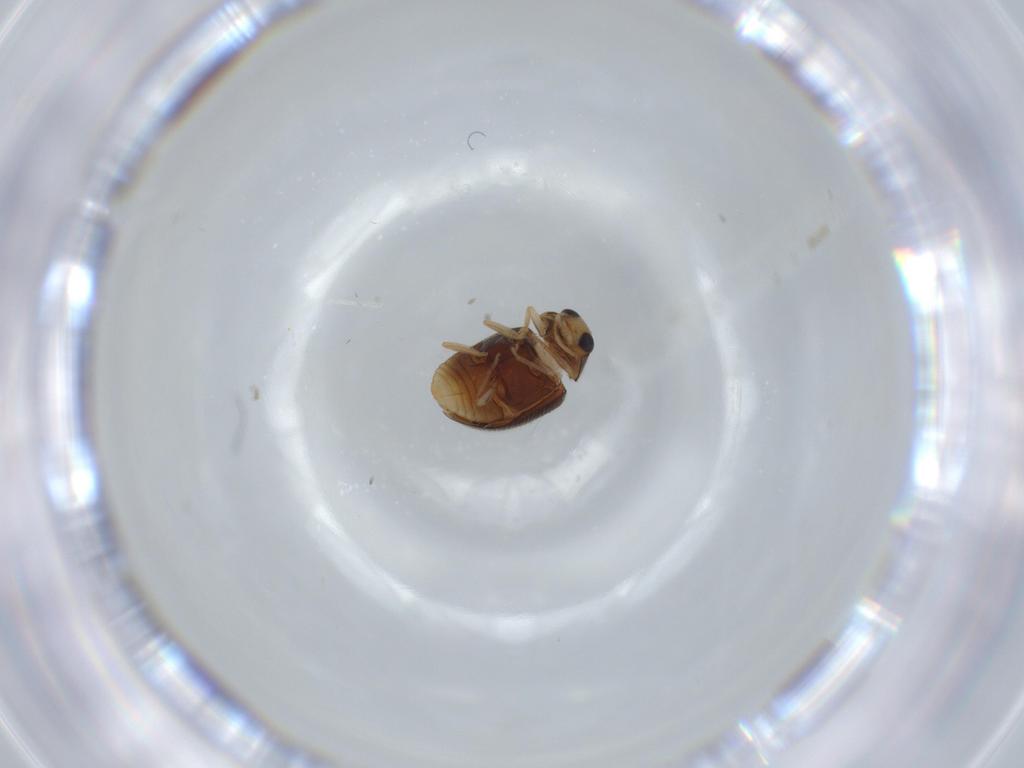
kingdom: Animalia
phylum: Arthropoda
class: Insecta
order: Coleoptera
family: Coccinellidae
